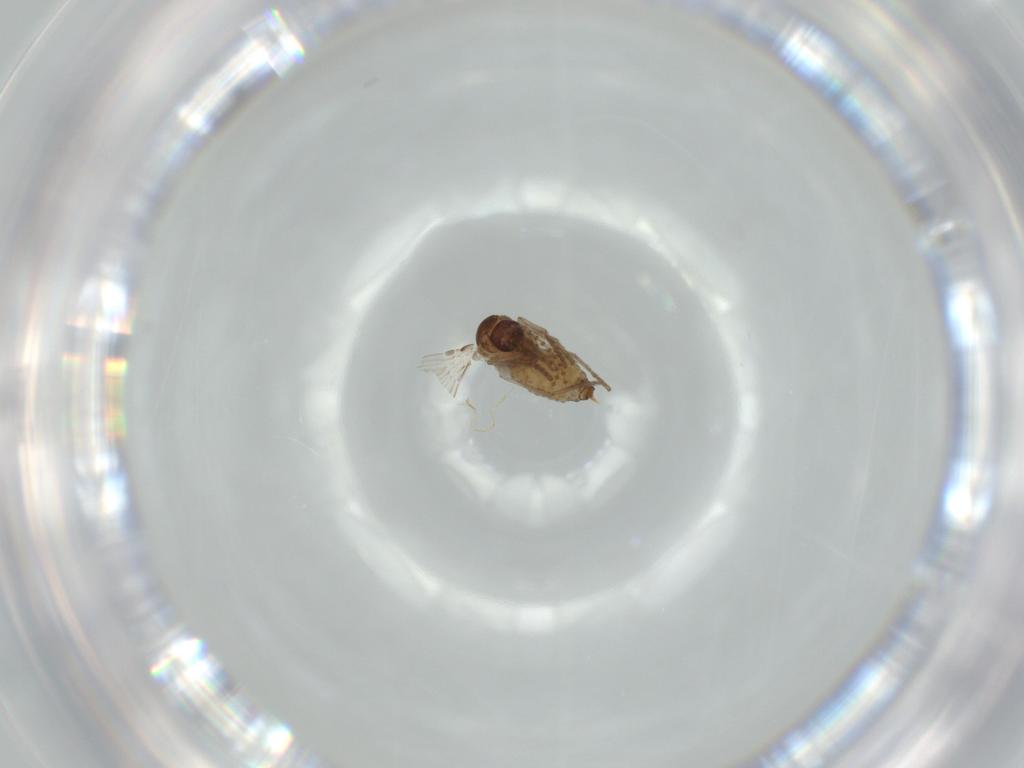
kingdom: Animalia
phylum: Arthropoda
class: Insecta
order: Diptera
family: Psychodidae
